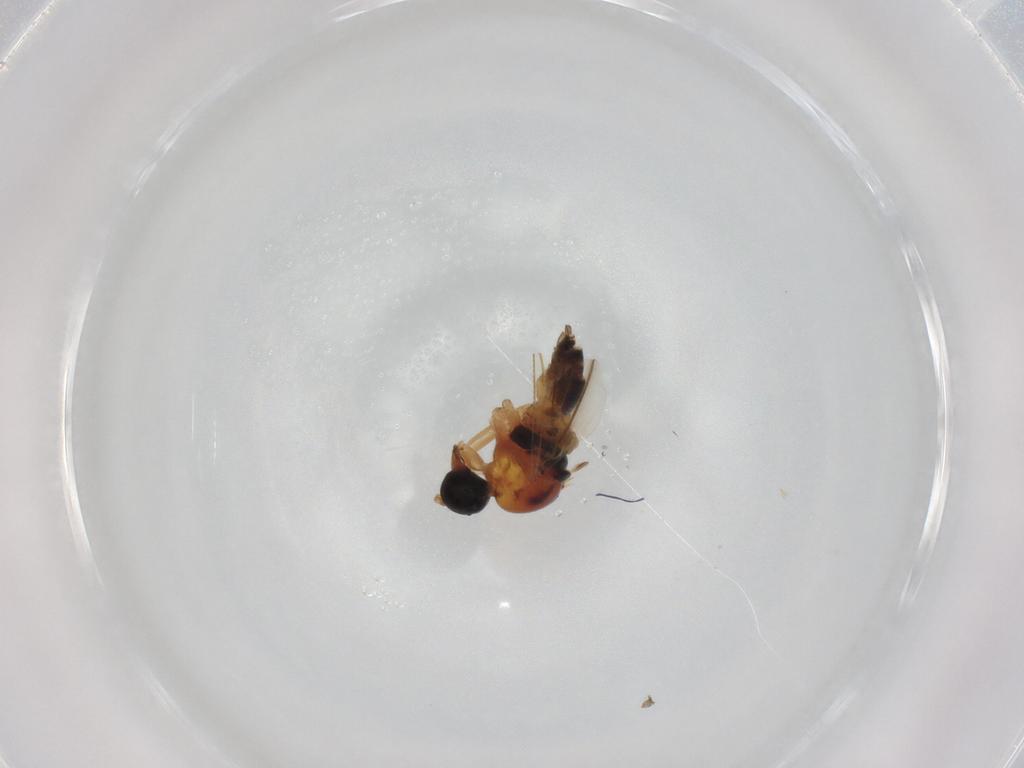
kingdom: Animalia
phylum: Arthropoda
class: Insecta
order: Diptera
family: Hybotidae
